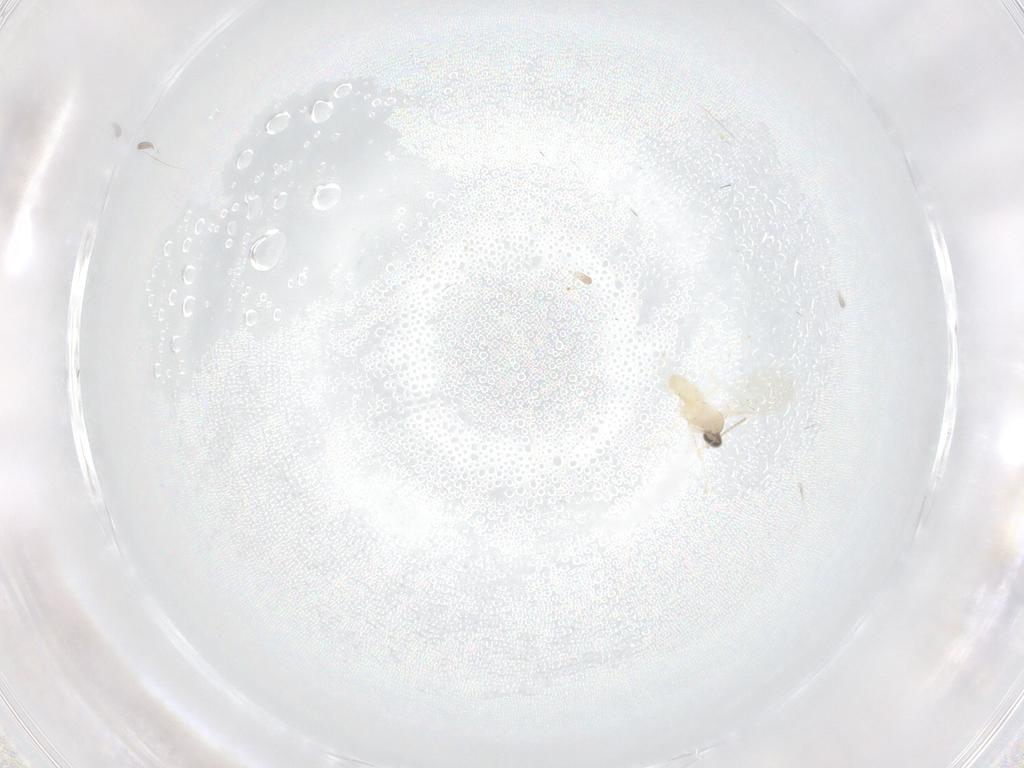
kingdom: Animalia
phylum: Arthropoda
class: Insecta
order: Diptera
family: Cecidomyiidae
